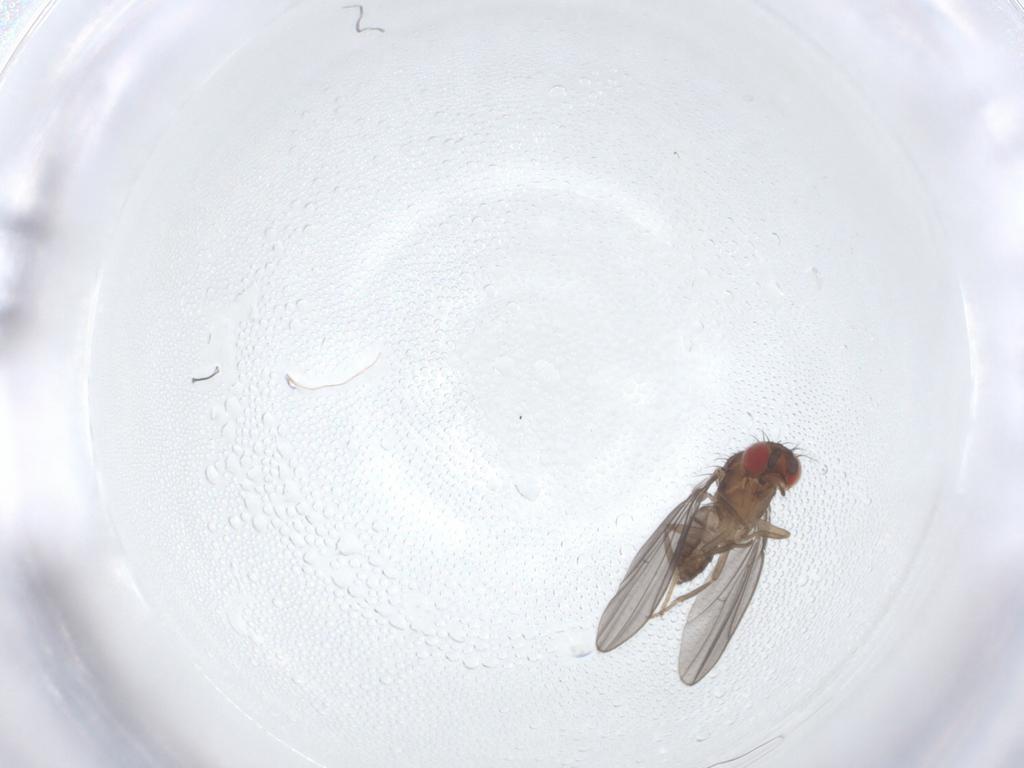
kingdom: Animalia
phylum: Arthropoda
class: Insecta
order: Diptera
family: Drosophilidae
